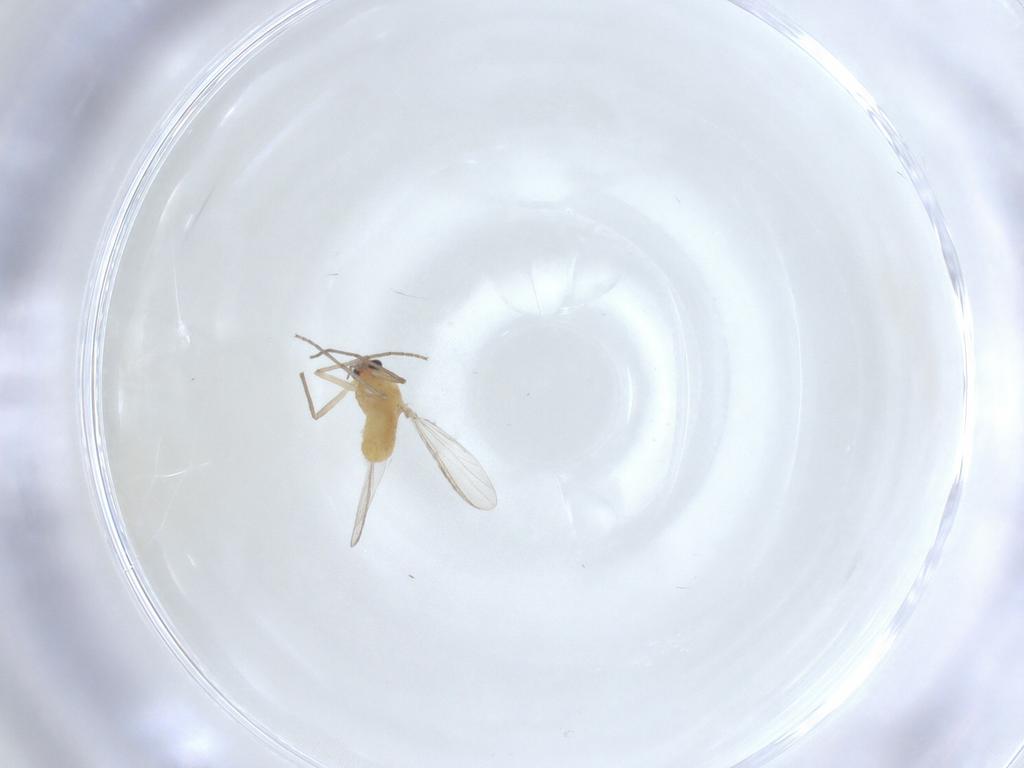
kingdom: Animalia
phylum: Arthropoda
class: Insecta
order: Diptera
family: Chironomidae
